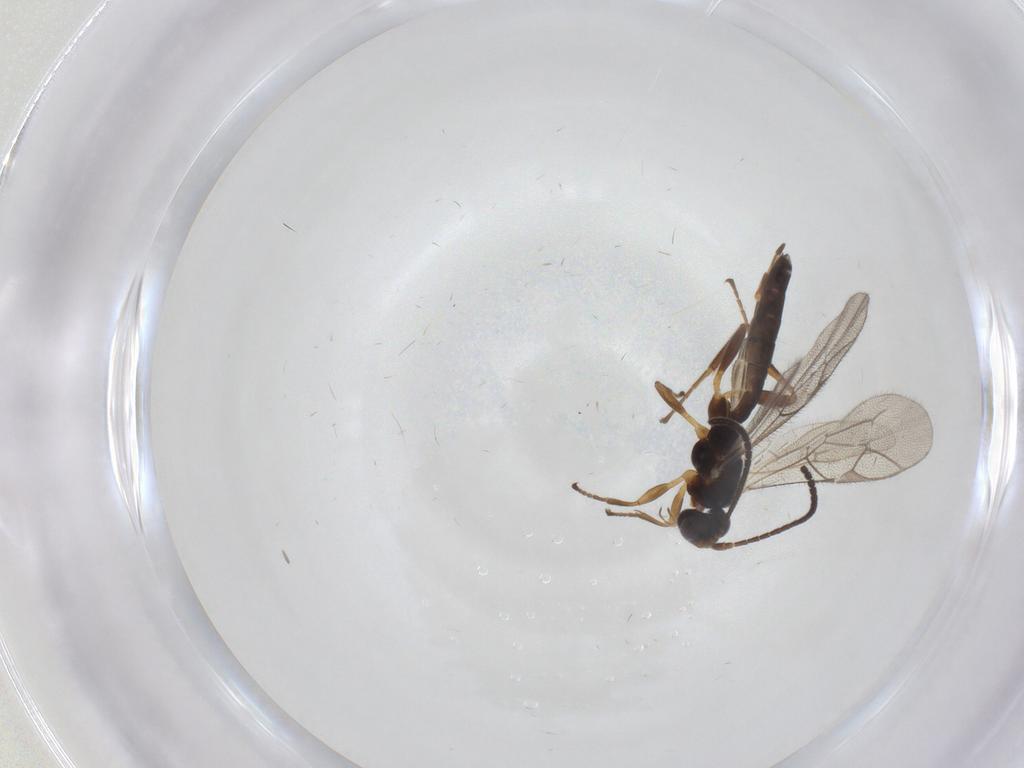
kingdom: Animalia
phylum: Arthropoda
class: Insecta
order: Hymenoptera
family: Ichneumonidae
